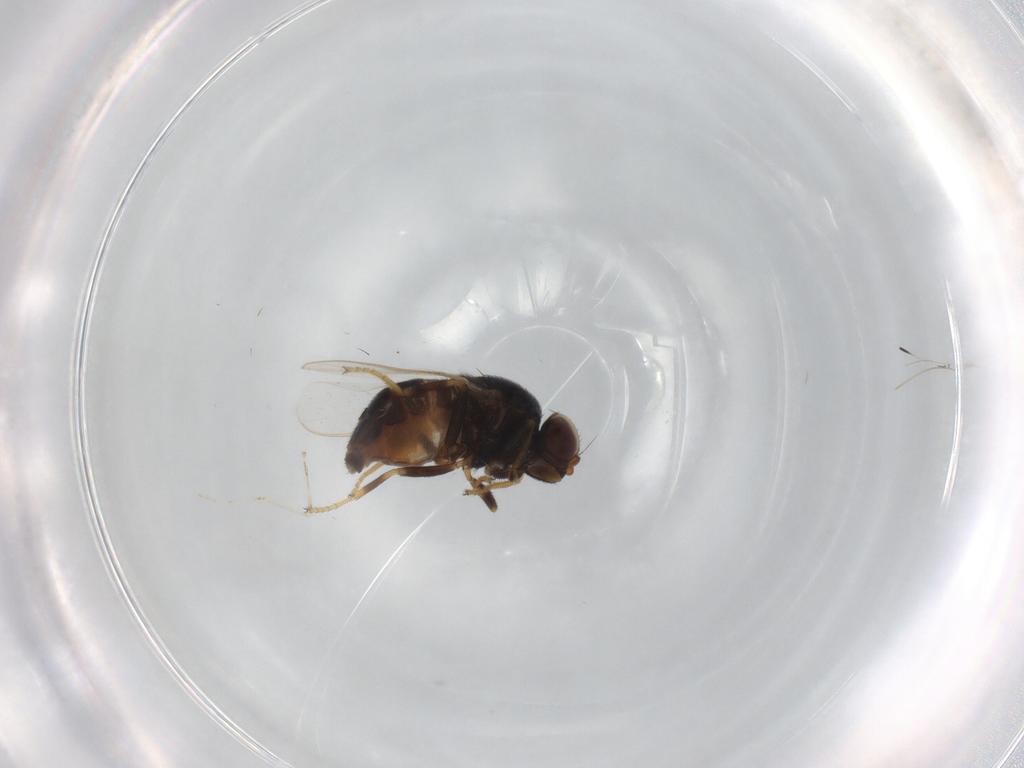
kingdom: Animalia
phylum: Arthropoda
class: Insecta
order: Diptera
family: Chloropidae
